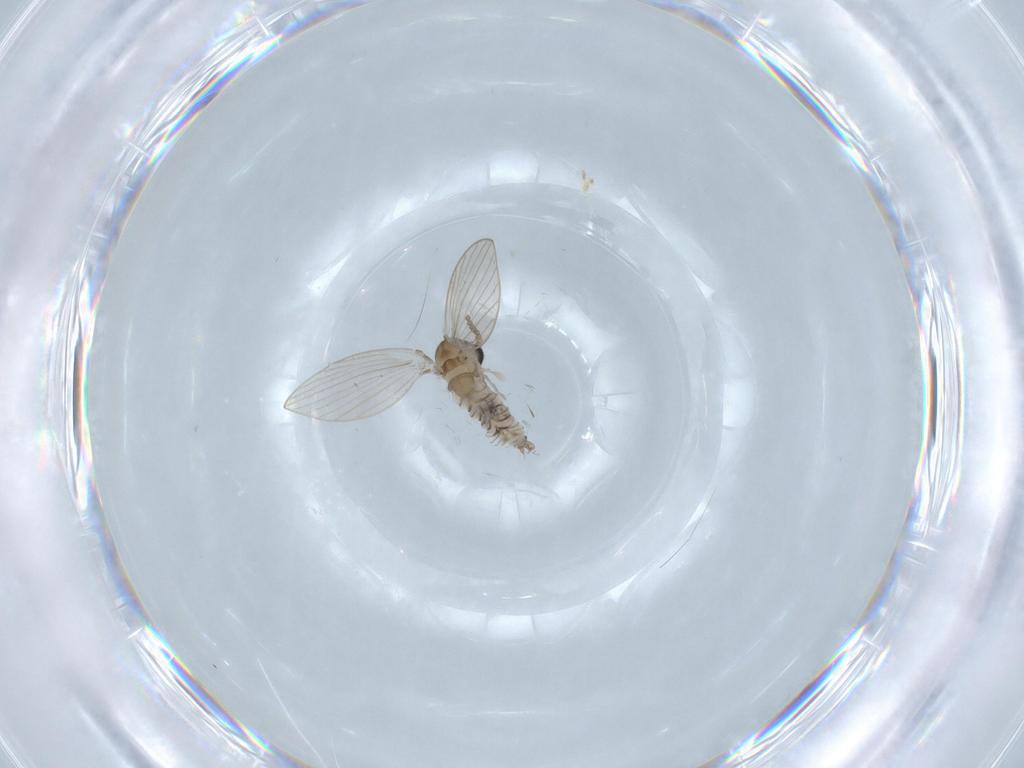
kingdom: Animalia
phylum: Arthropoda
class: Insecta
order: Diptera
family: Psychodidae
